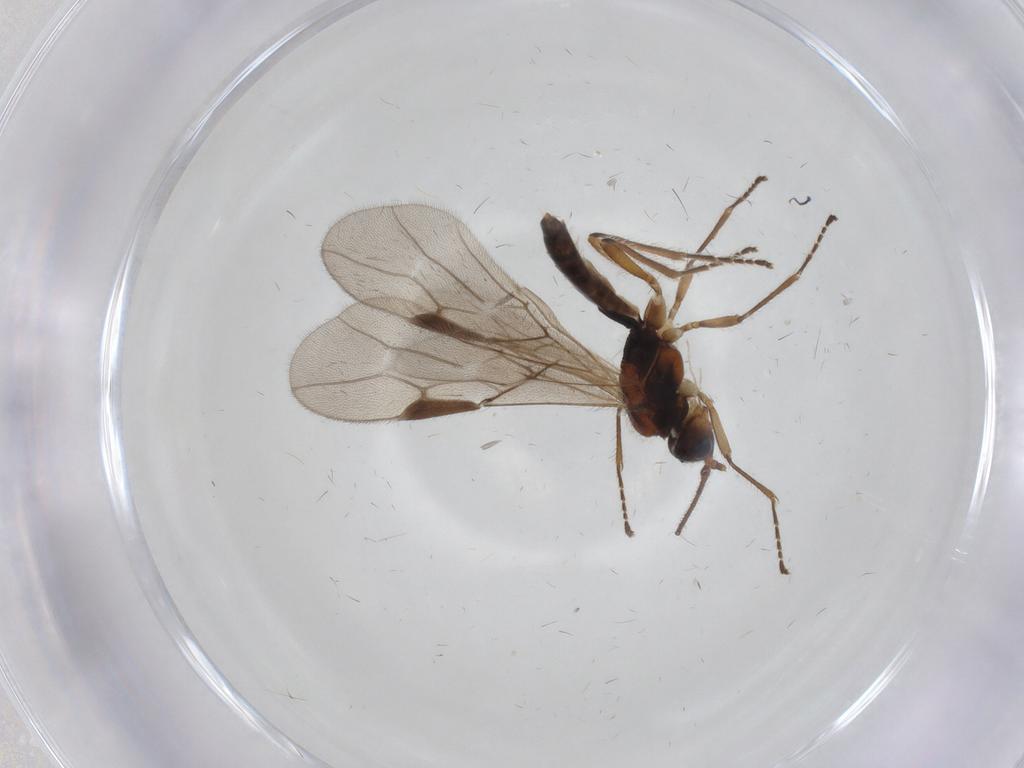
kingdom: Animalia
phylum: Arthropoda
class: Insecta
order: Hymenoptera
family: Braconidae
